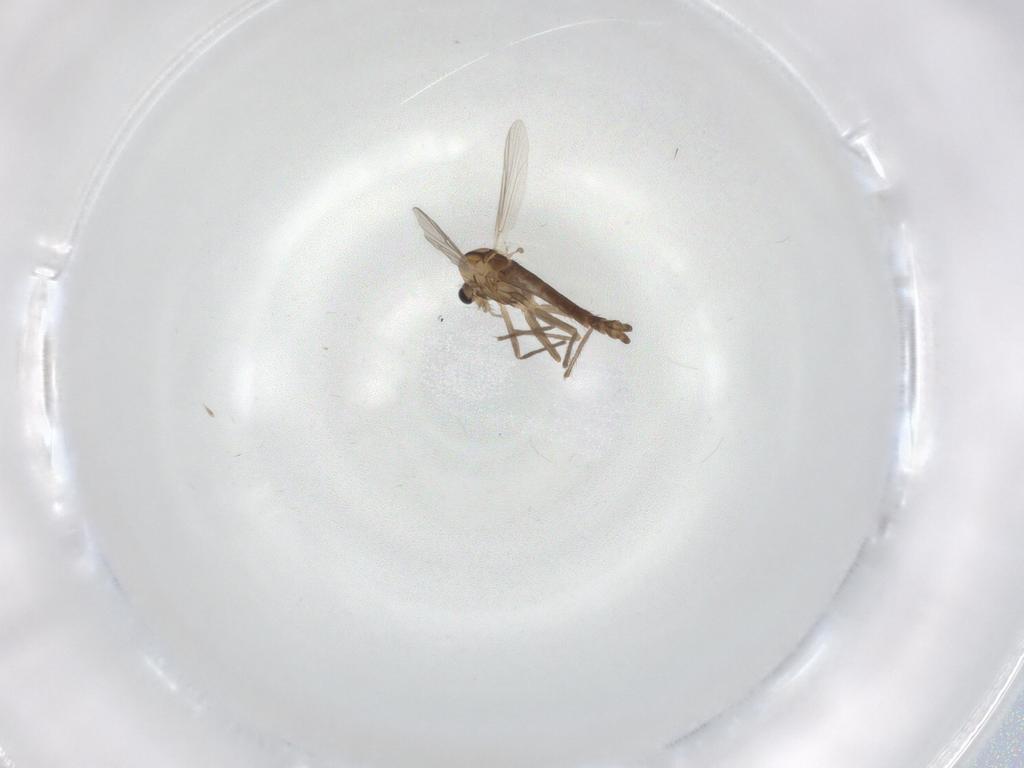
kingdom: Animalia
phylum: Arthropoda
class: Insecta
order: Diptera
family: Chironomidae
